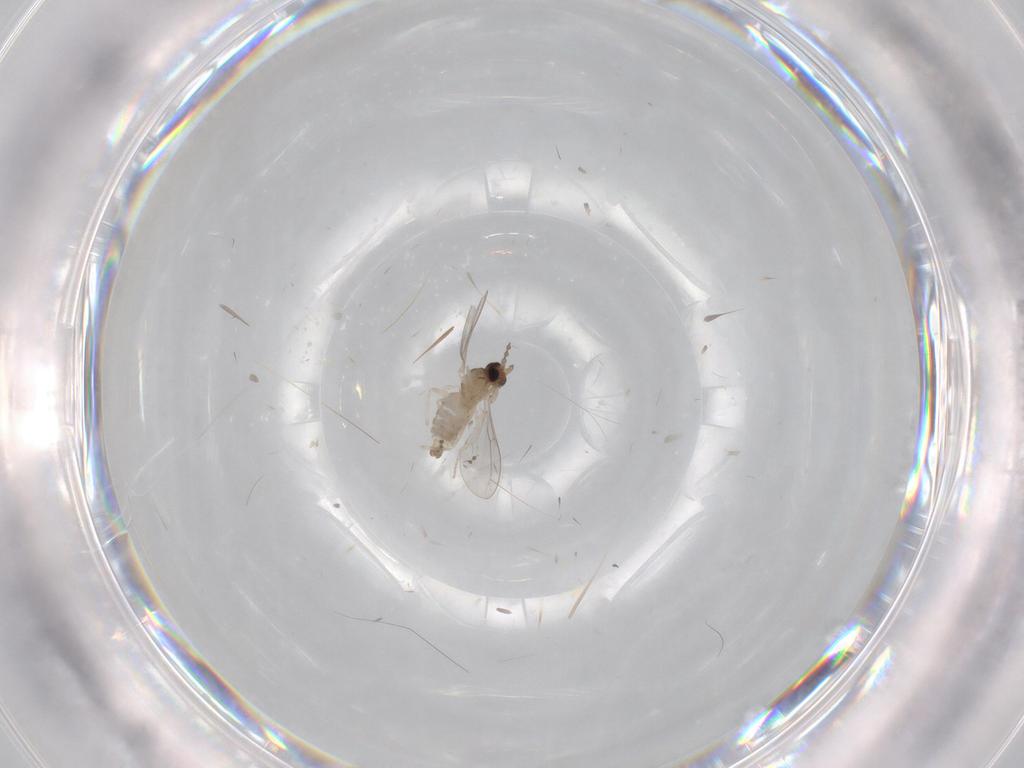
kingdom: Animalia
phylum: Arthropoda
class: Insecta
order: Diptera
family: Cecidomyiidae
